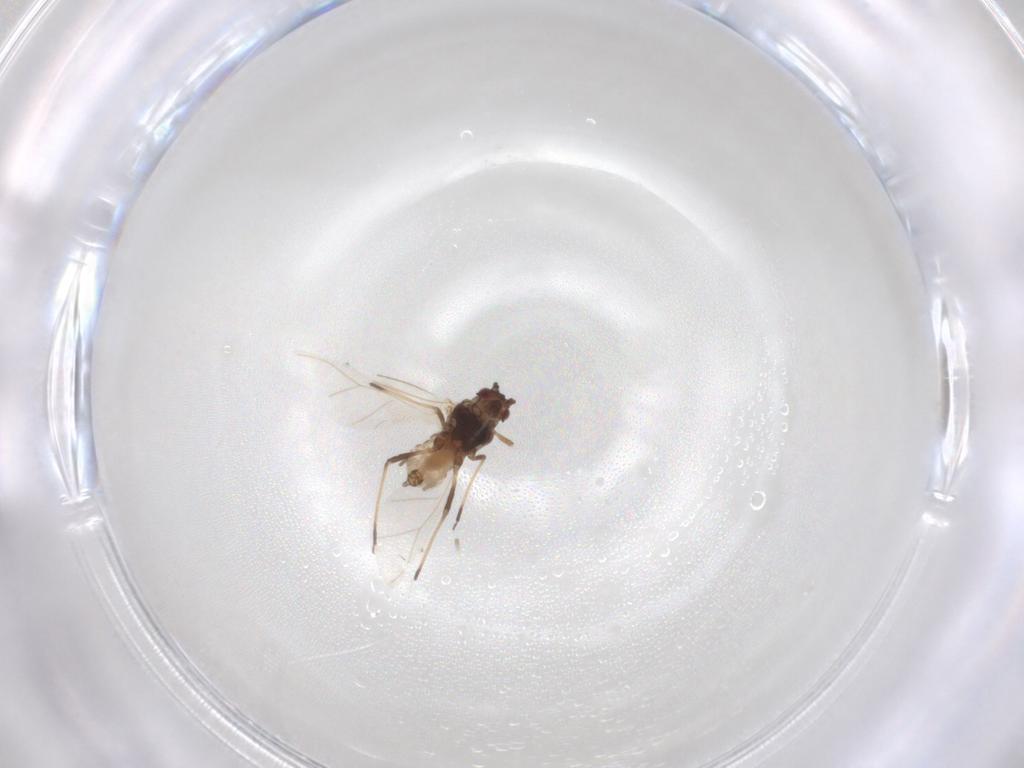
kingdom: Animalia
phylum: Arthropoda
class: Insecta
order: Hemiptera
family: Aphididae
